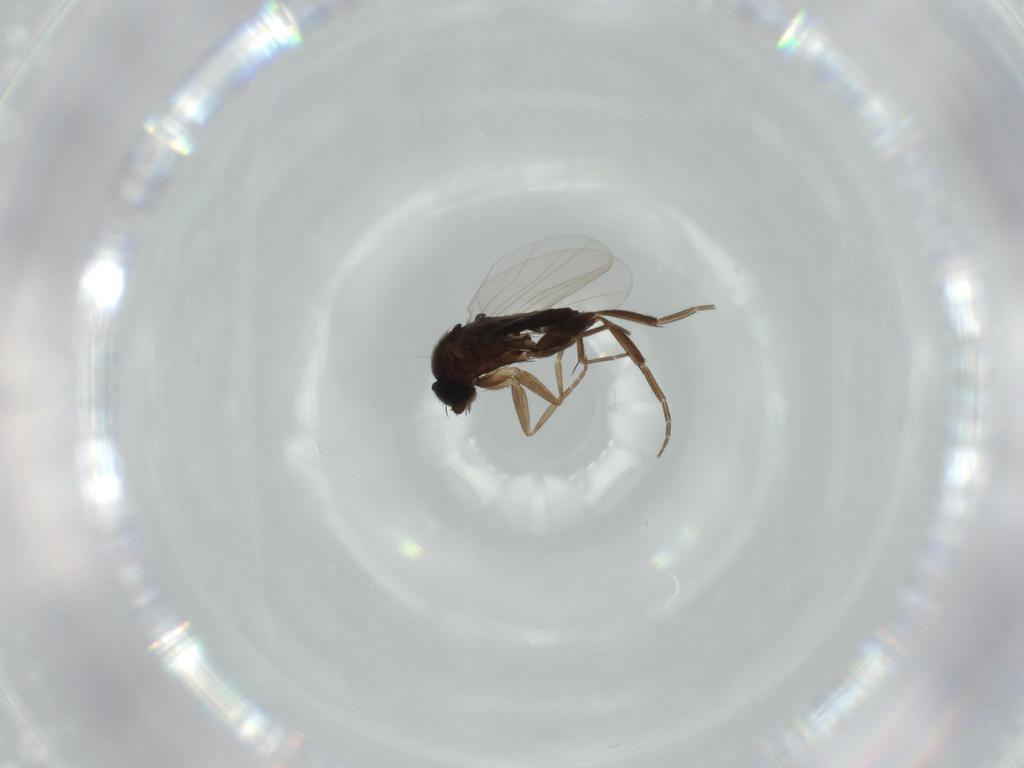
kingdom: Animalia
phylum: Arthropoda
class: Insecta
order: Diptera
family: Phoridae
